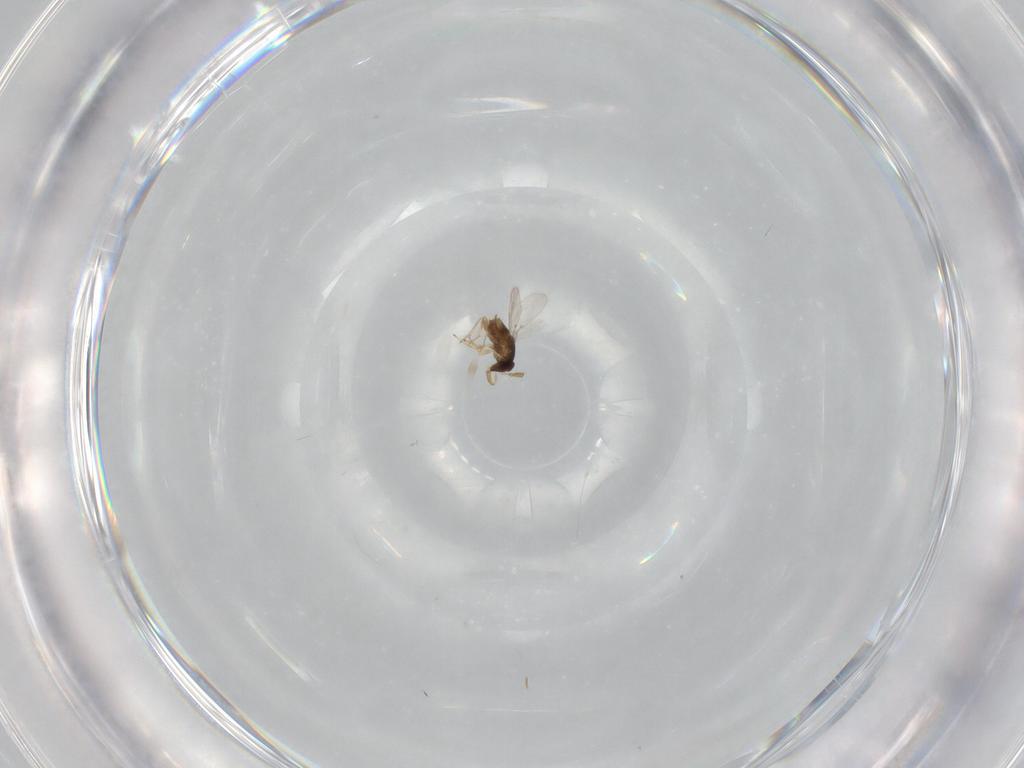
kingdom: Animalia
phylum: Arthropoda
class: Insecta
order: Hymenoptera
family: Encyrtidae
